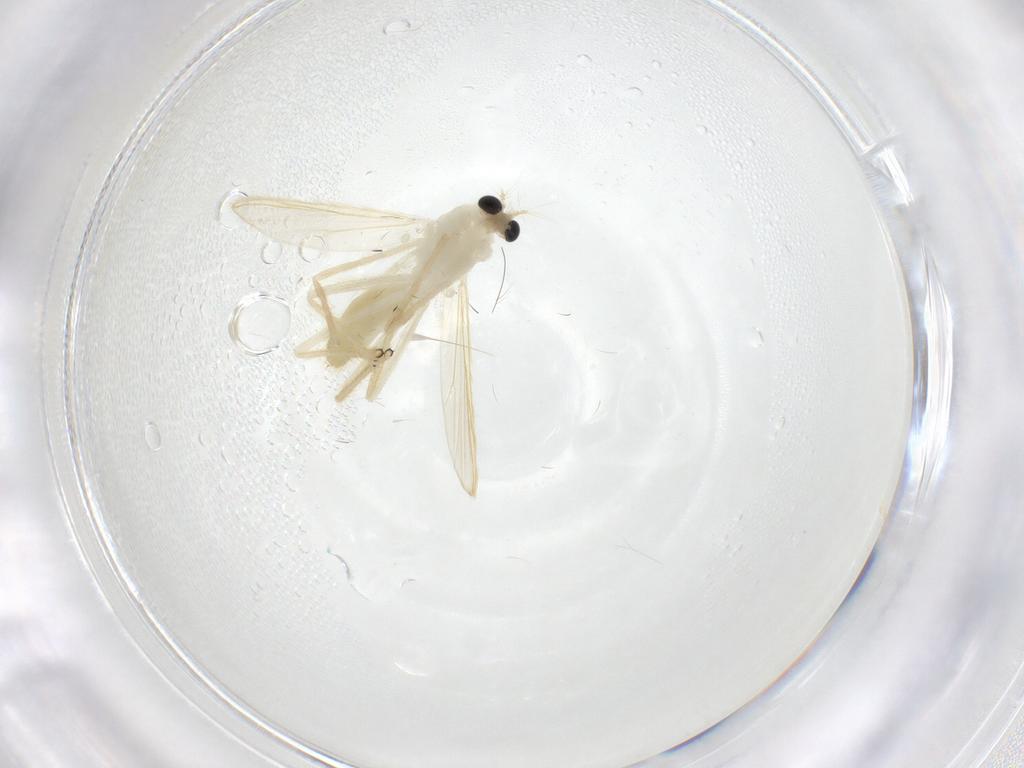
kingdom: Animalia
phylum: Arthropoda
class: Insecta
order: Diptera
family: Chironomidae
